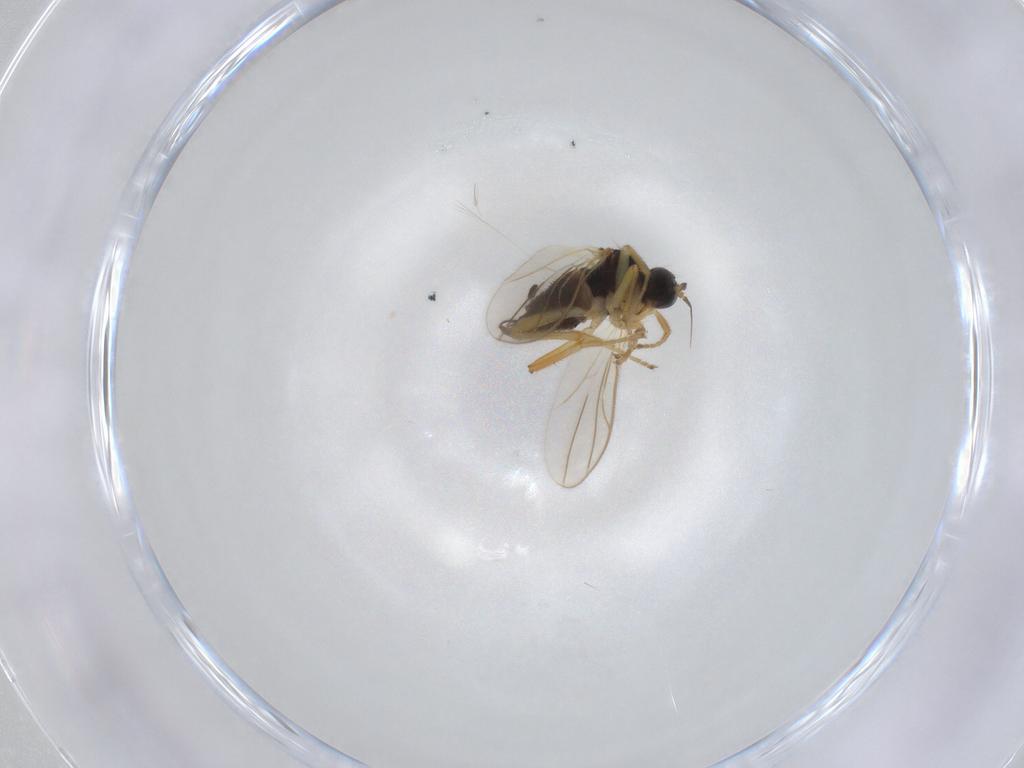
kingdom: Animalia
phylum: Arthropoda
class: Insecta
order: Diptera
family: Hybotidae
